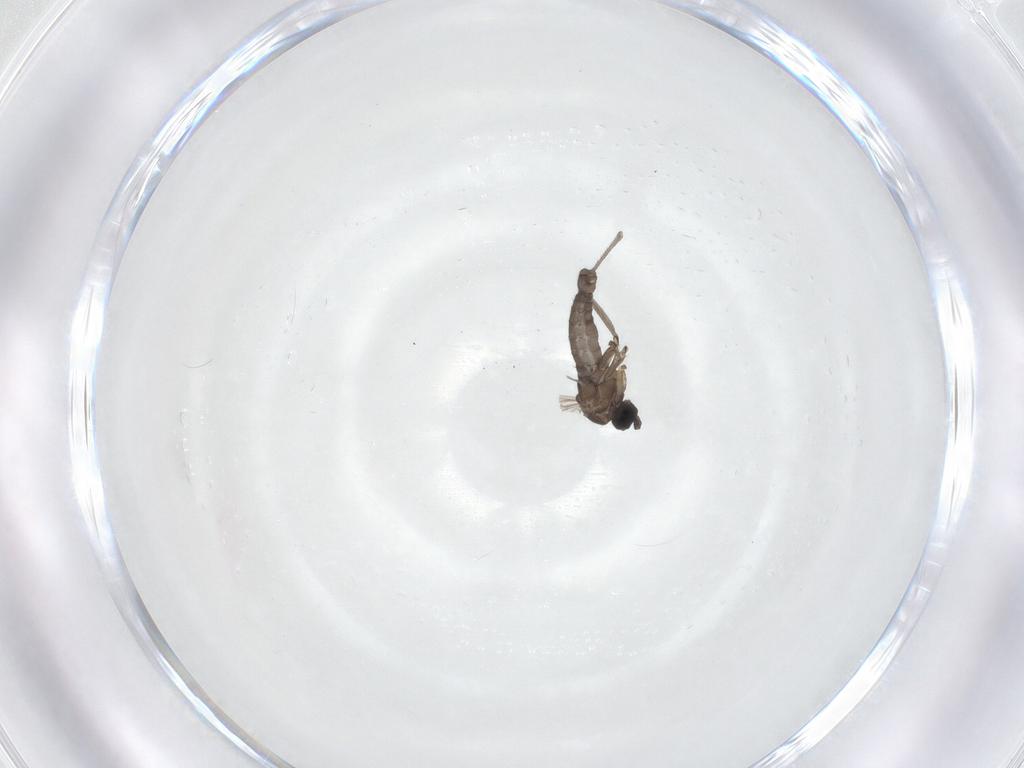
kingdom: Animalia
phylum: Arthropoda
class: Insecta
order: Diptera
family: Sciaridae
